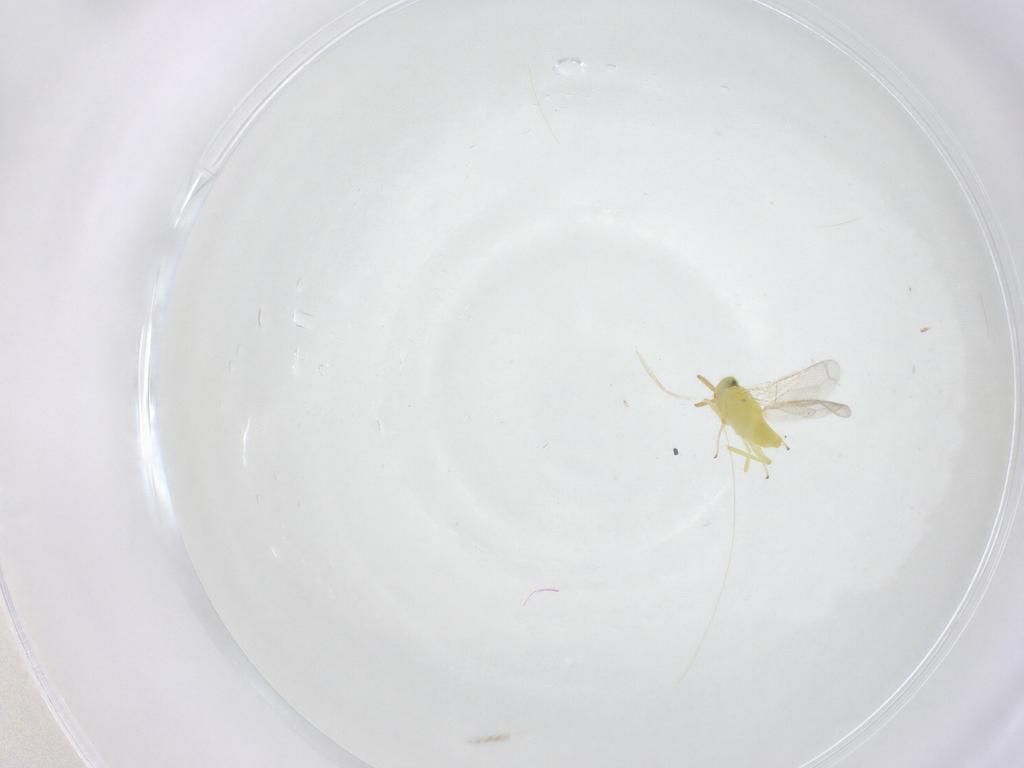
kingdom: Animalia
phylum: Arthropoda
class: Insecta
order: Hymenoptera
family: Aphelinidae
